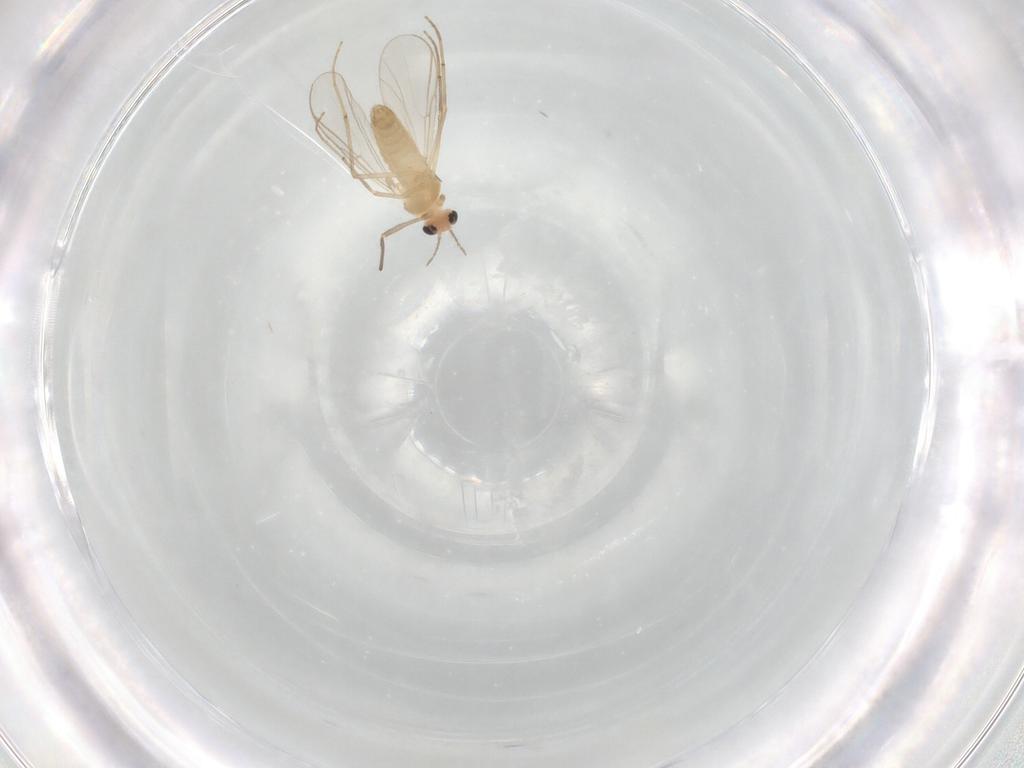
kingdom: Animalia
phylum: Arthropoda
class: Insecta
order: Diptera
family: Chironomidae
